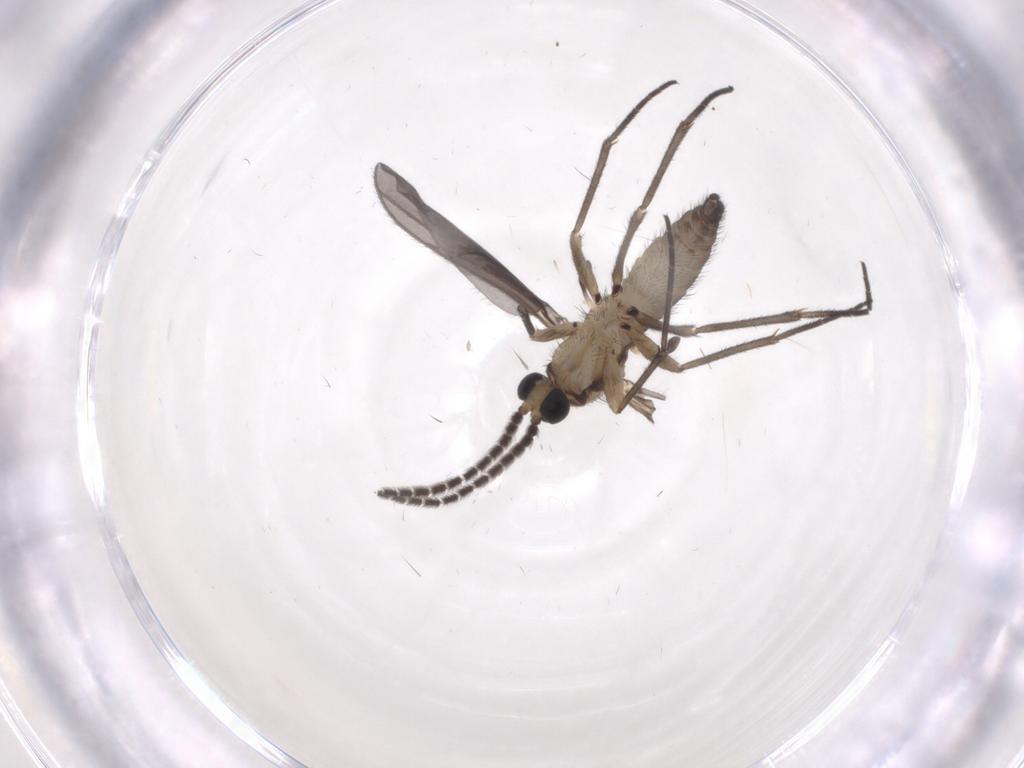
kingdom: Animalia
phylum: Arthropoda
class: Insecta
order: Diptera
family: Sciaridae
